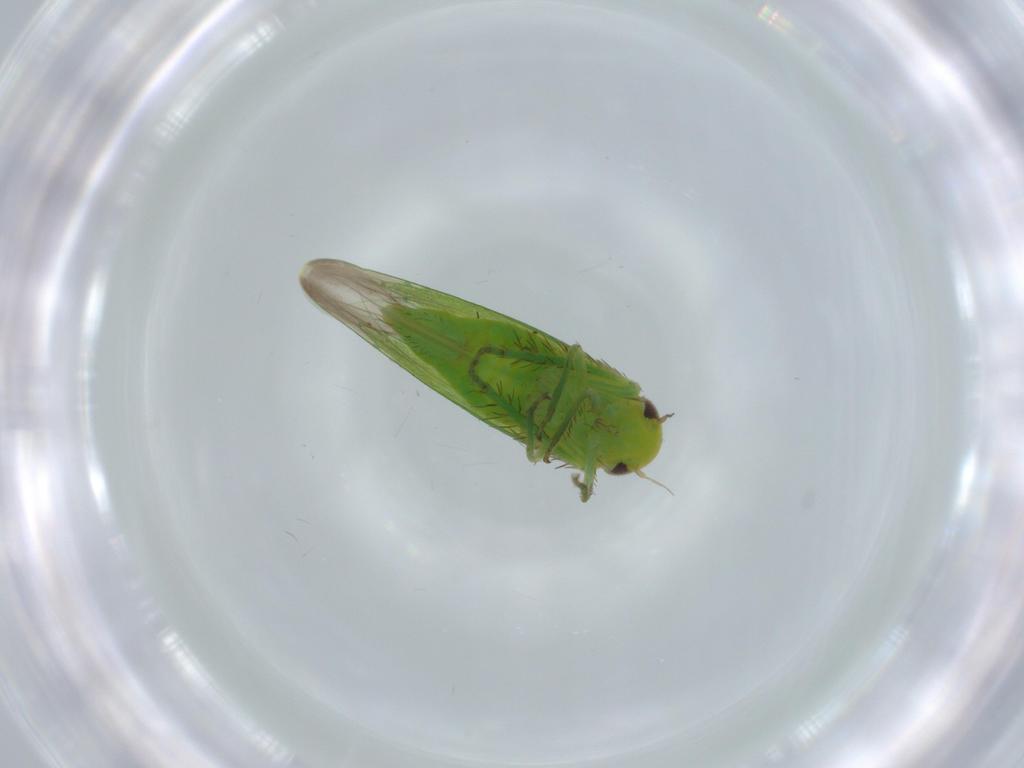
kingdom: Animalia
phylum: Arthropoda
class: Insecta
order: Hemiptera
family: Cicadellidae
